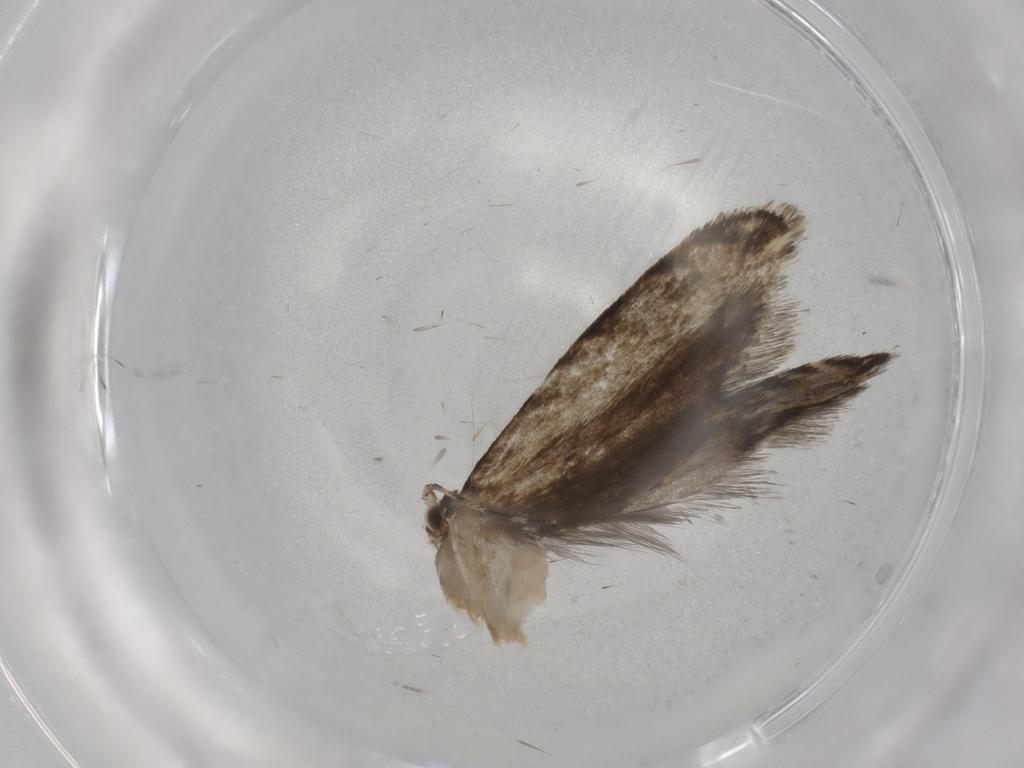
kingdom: Animalia
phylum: Arthropoda
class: Insecta
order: Lepidoptera
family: Tineidae
